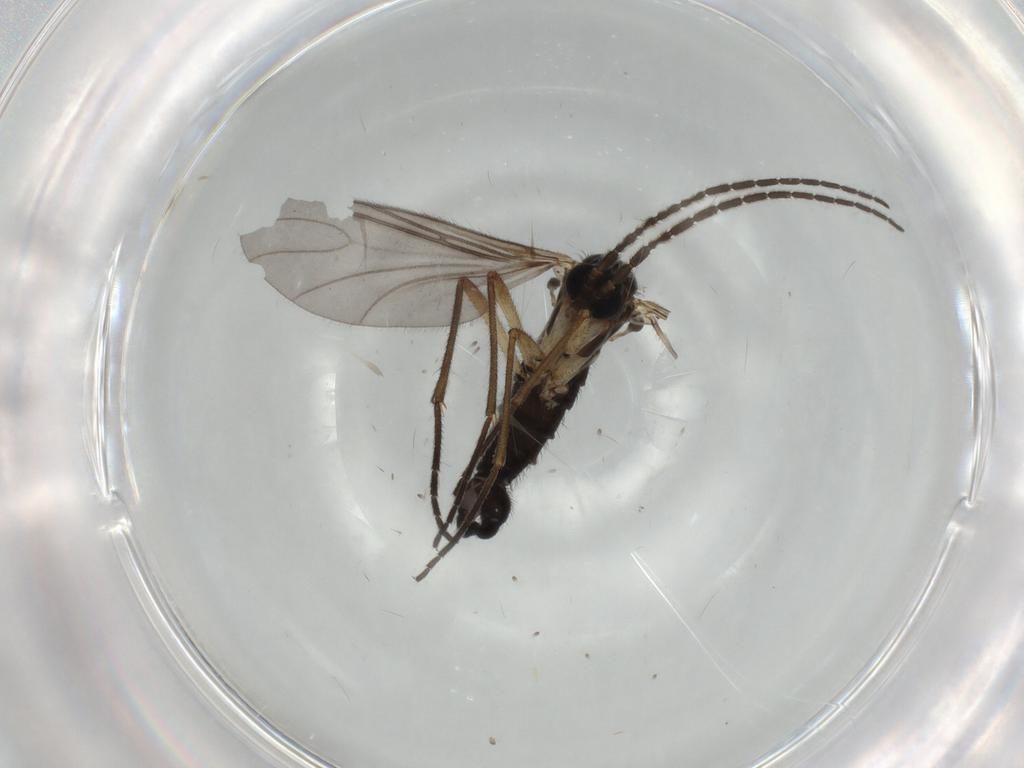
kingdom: Animalia
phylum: Arthropoda
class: Insecta
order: Diptera
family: Sciaridae
